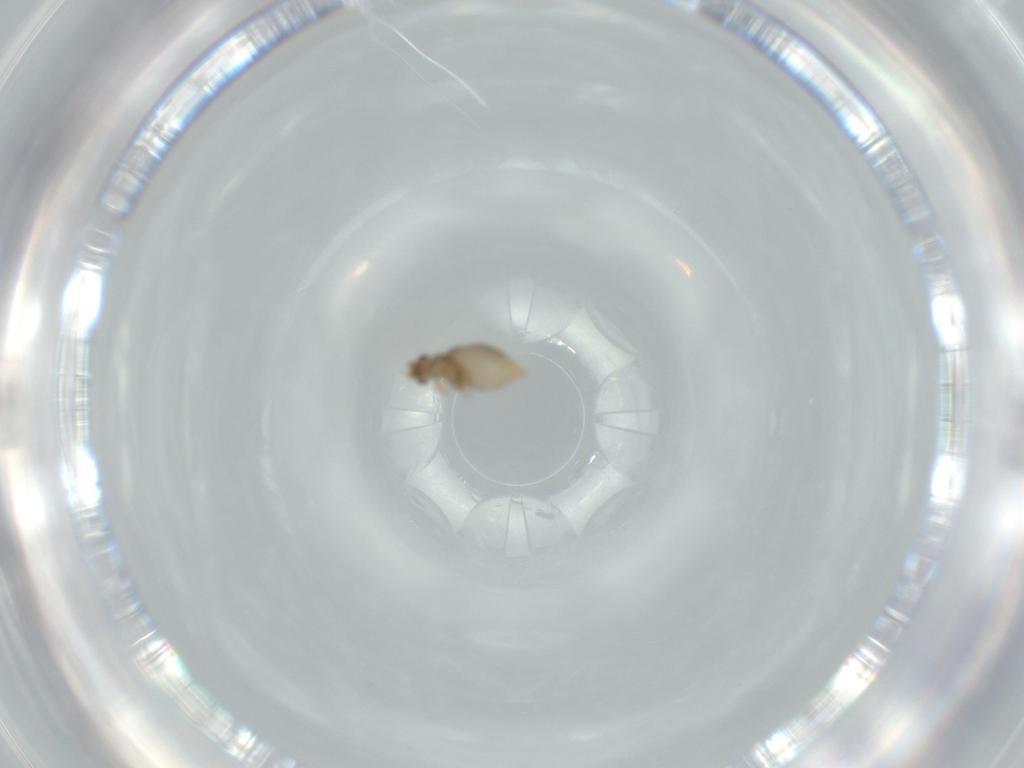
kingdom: Animalia
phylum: Arthropoda
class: Insecta
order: Diptera
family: Phoridae
